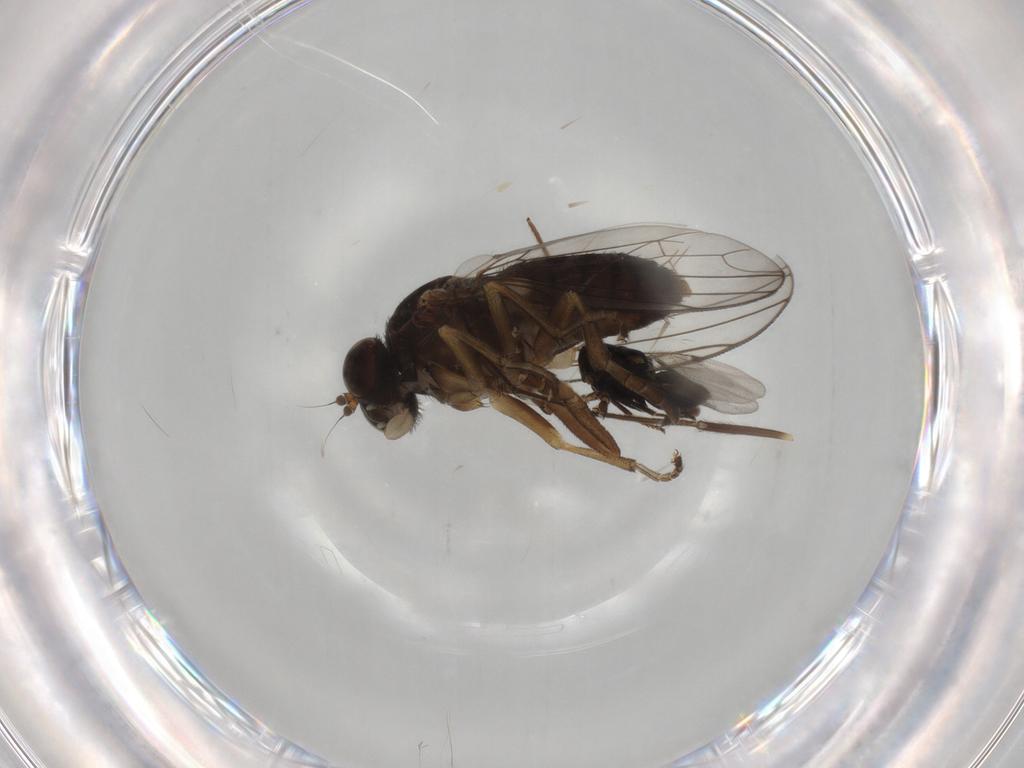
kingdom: Animalia
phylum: Arthropoda
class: Insecta
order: Diptera
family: Platypezidae
